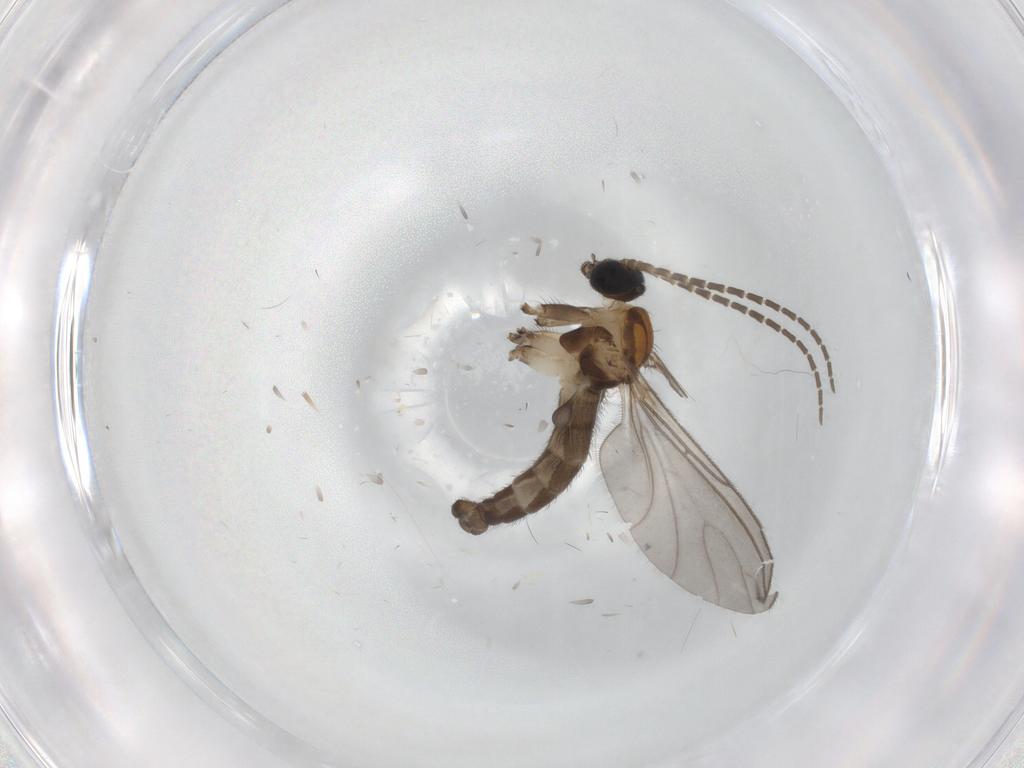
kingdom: Animalia
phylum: Arthropoda
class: Insecta
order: Diptera
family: Sciaridae
